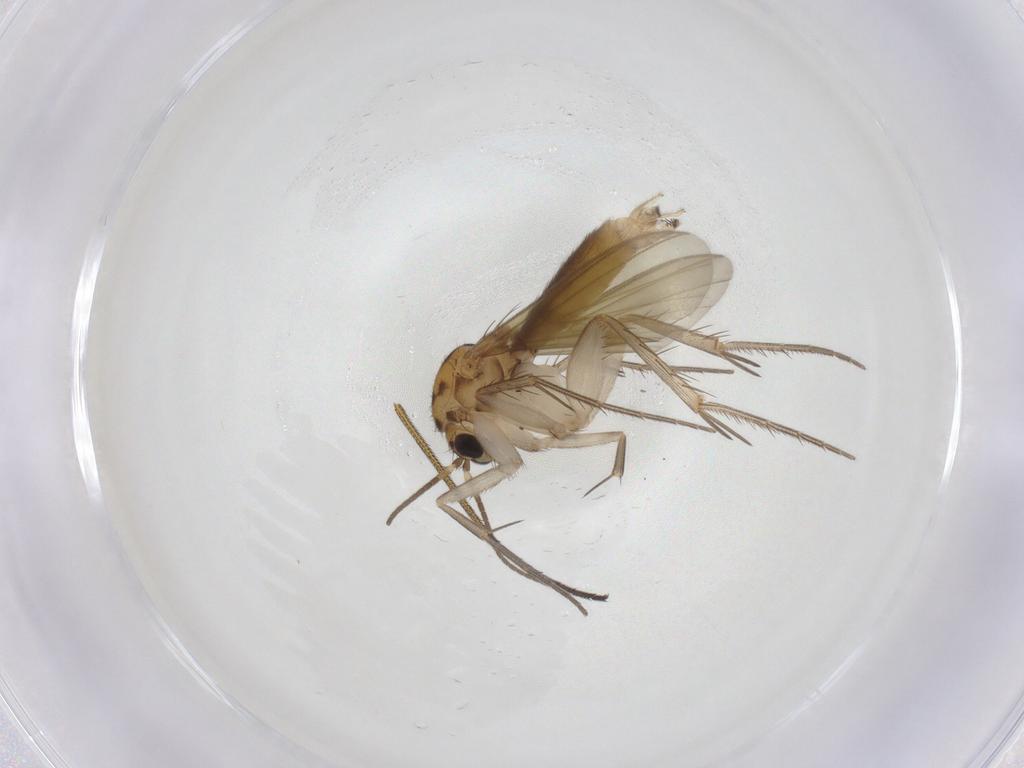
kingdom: Animalia
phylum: Arthropoda
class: Insecta
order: Diptera
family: Mycetophilidae
